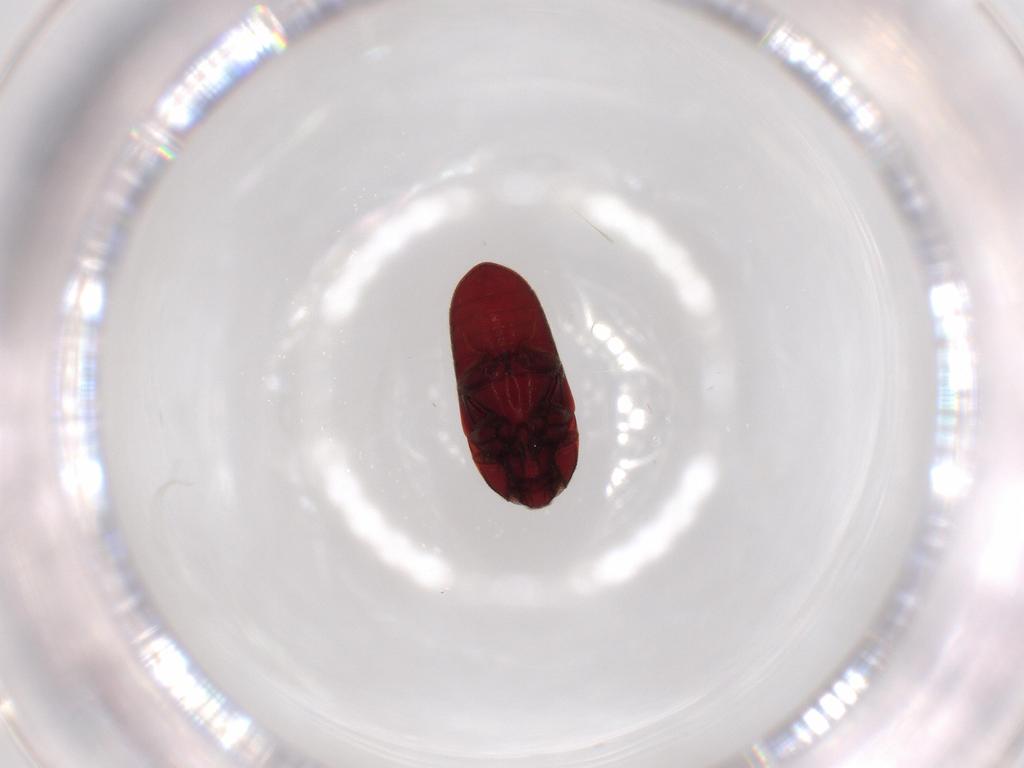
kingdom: Animalia
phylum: Arthropoda
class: Insecta
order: Coleoptera
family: Throscidae
